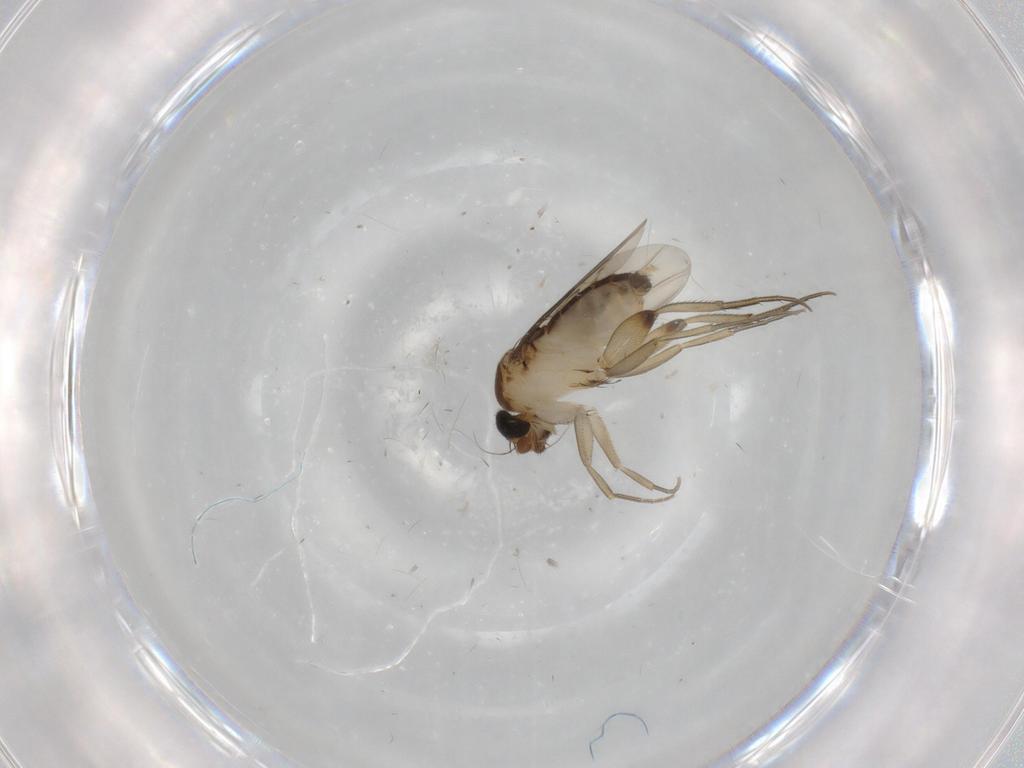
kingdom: Animalia
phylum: Arthropoda
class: Insecta
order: Diptera
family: Phoridae
